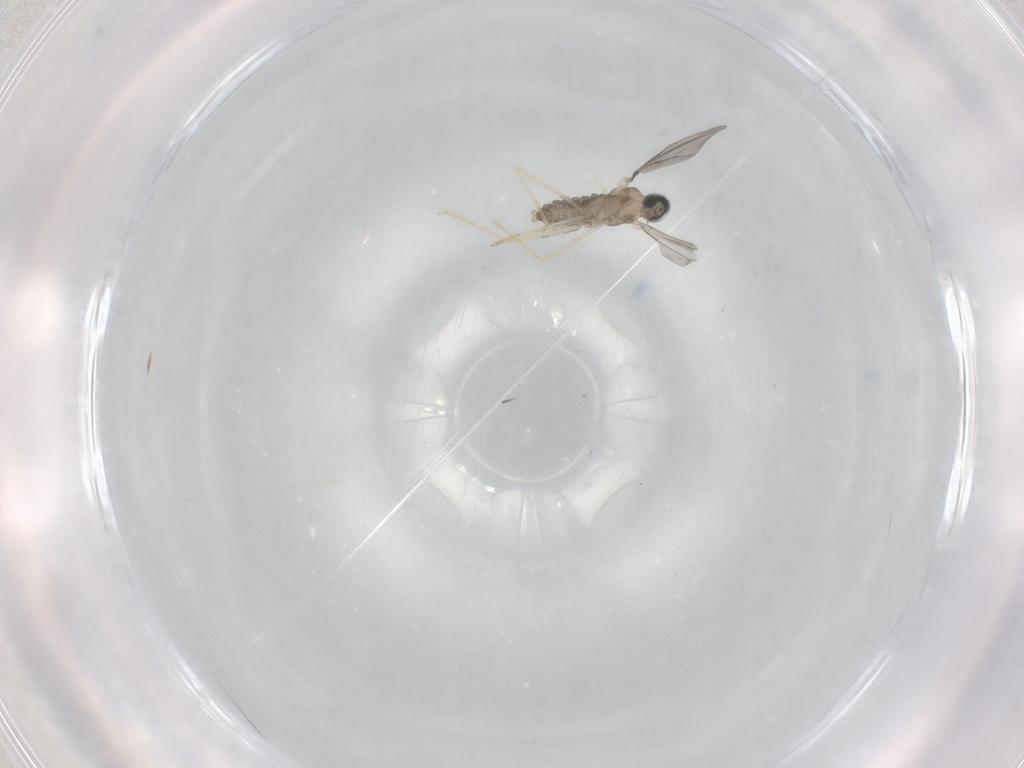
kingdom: Animalia
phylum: Arthropoda
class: Insecta
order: Diptera
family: Cecidomyiidae
